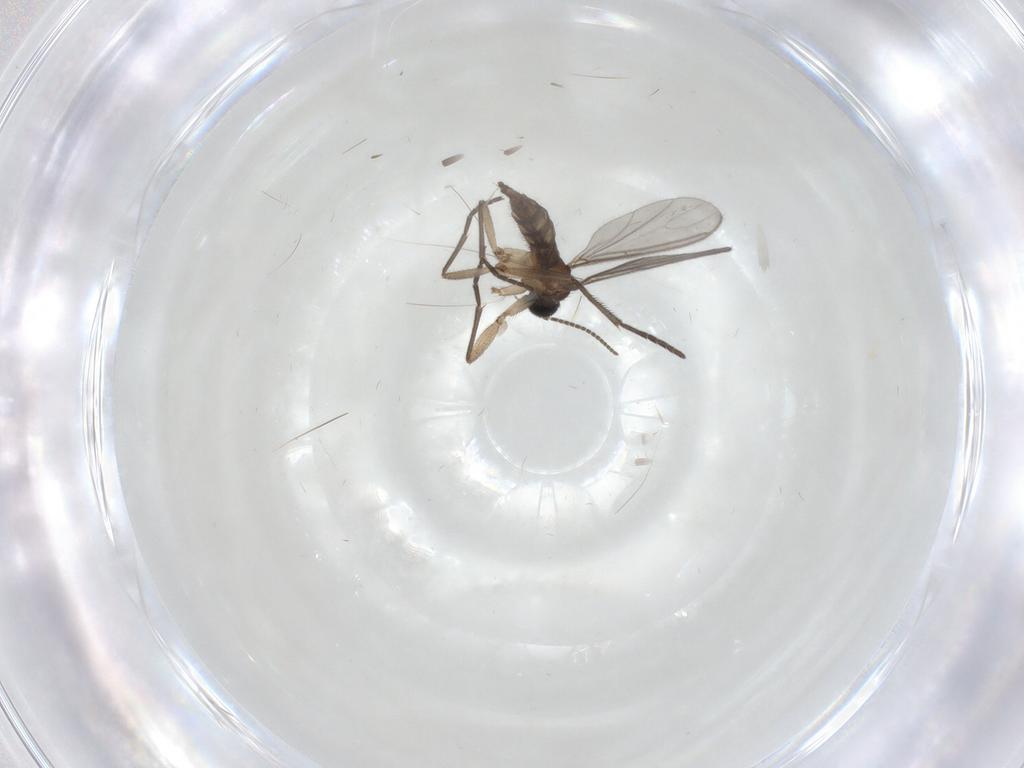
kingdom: Animalia
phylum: Arthropoda
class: Insecta
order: Diptera
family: Sciaridae
